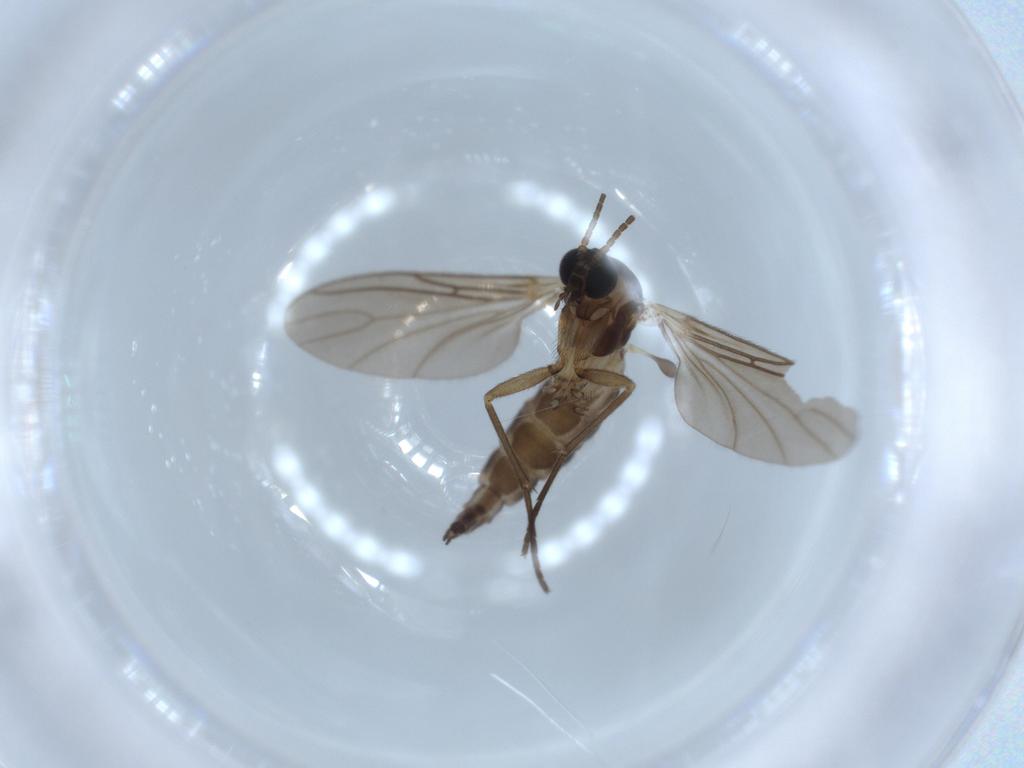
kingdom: Animalia
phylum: Arthropoda
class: Insecta
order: Diptera
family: Sciaridae
